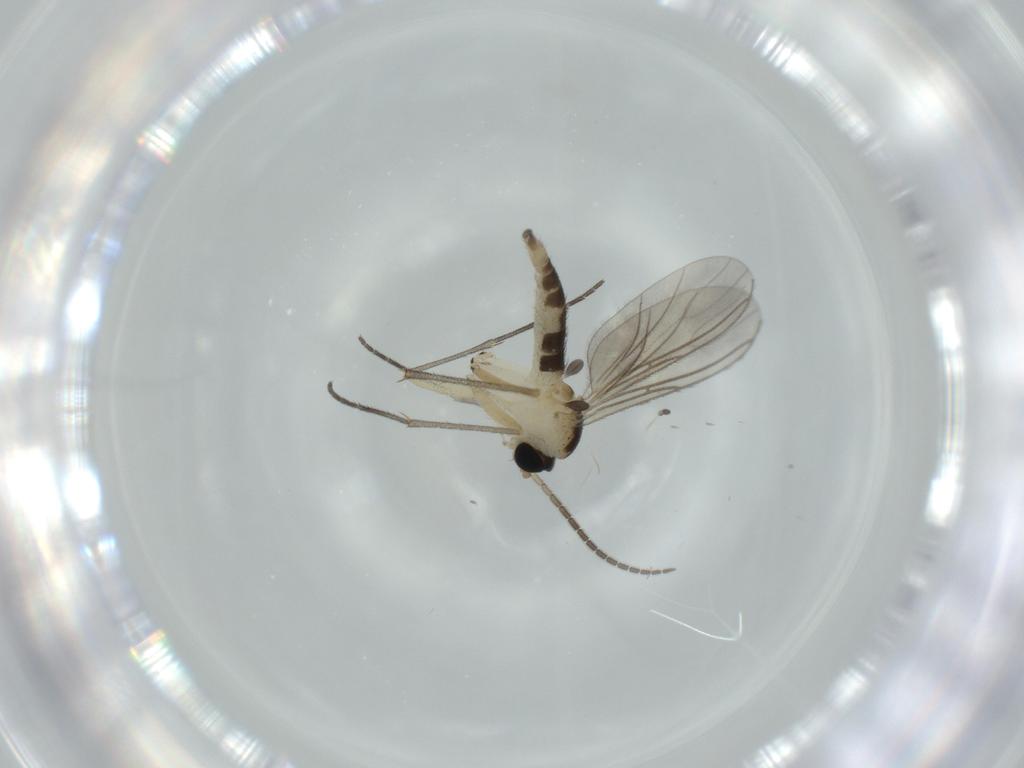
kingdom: Animalia
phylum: Arthropoda
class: Insecta
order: Diptera
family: Sciaridae
